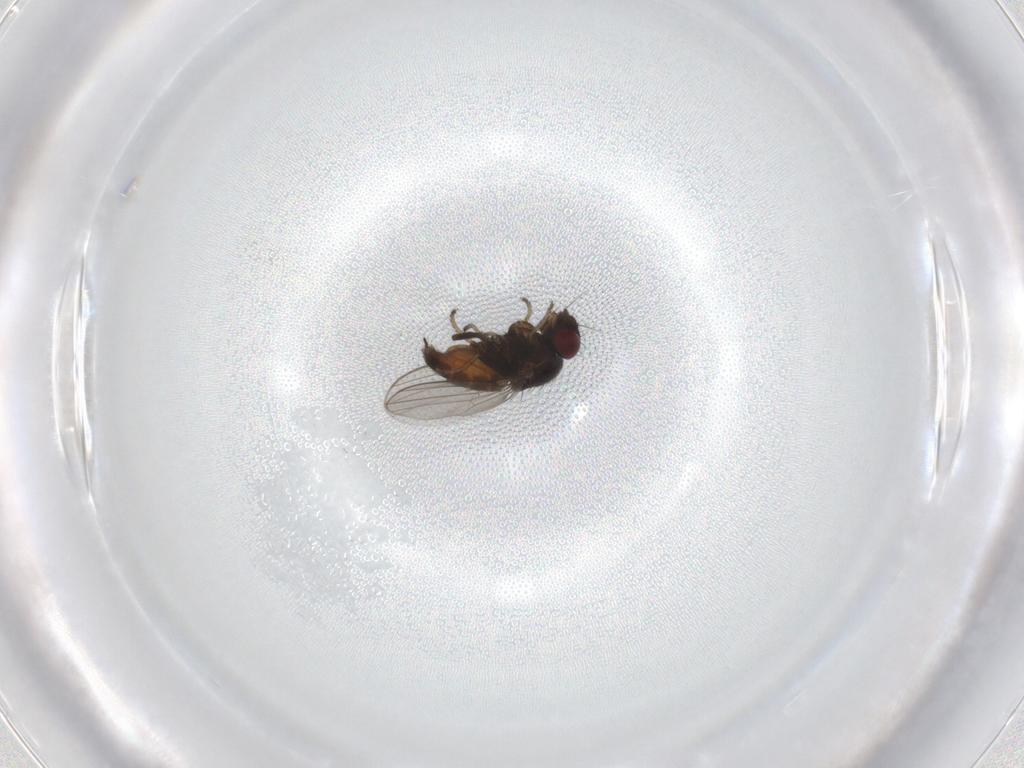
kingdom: Animalia
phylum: Arthropoda
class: Insecta
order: Diptera
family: Milichiidae
